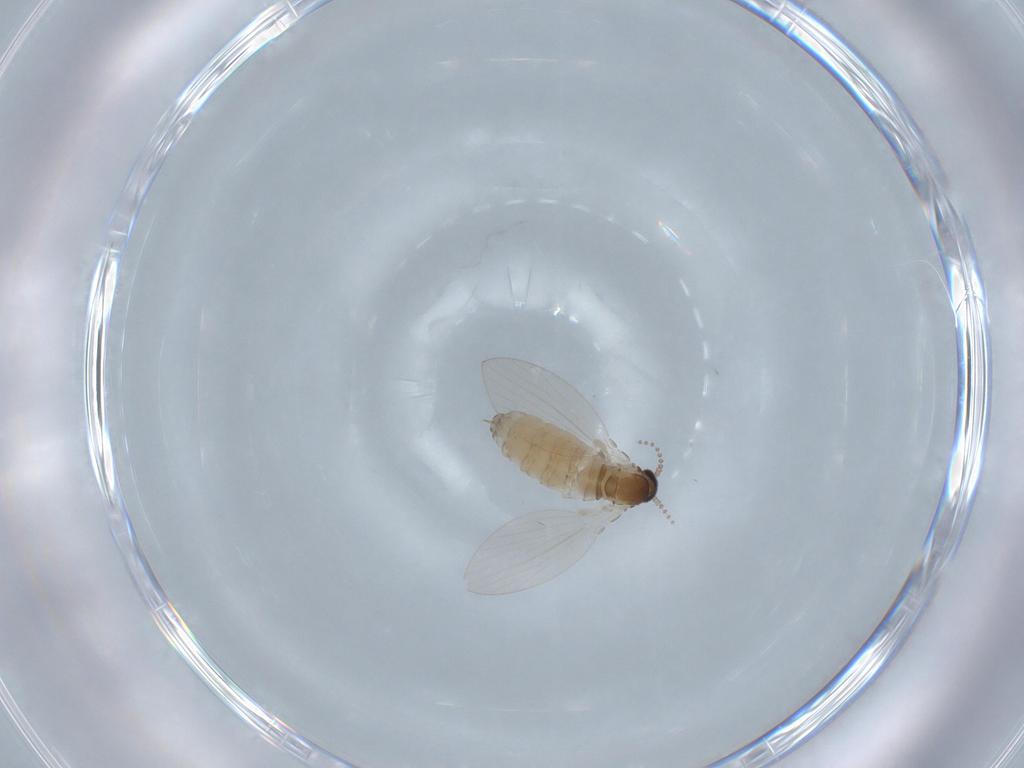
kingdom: Animalia
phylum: Arthropoda
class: Insecta
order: Diptera
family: Psychodidae
